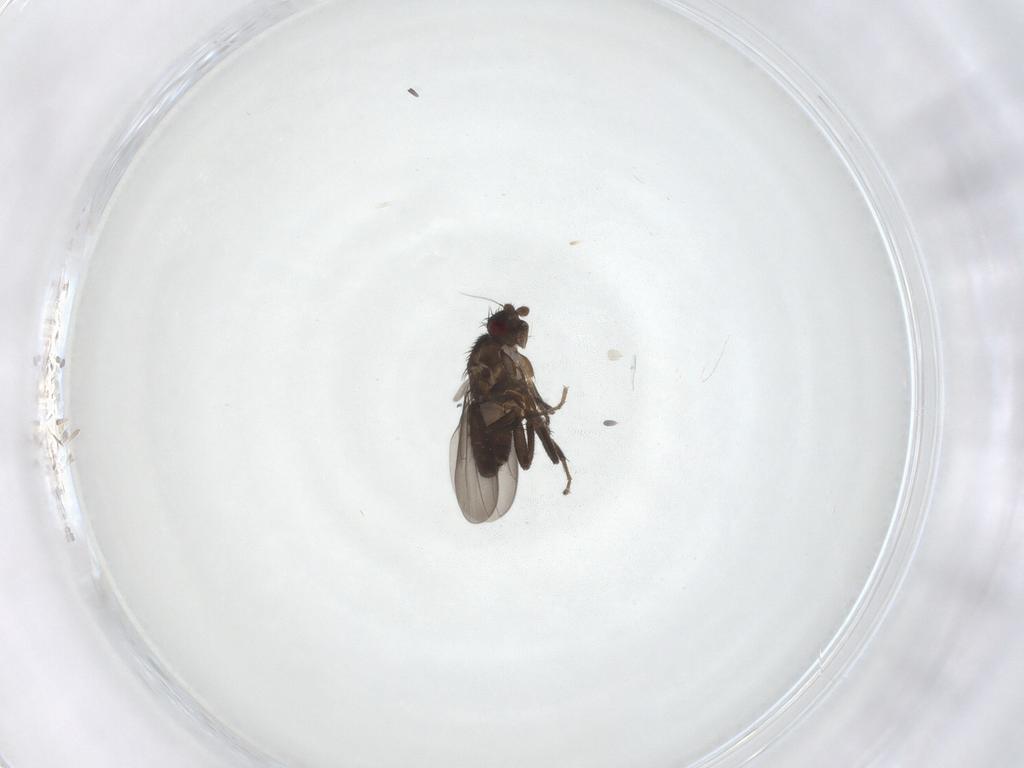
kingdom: Animalia
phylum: Arthropoda
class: Insecta
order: Diptera
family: Sphaeroceridae
